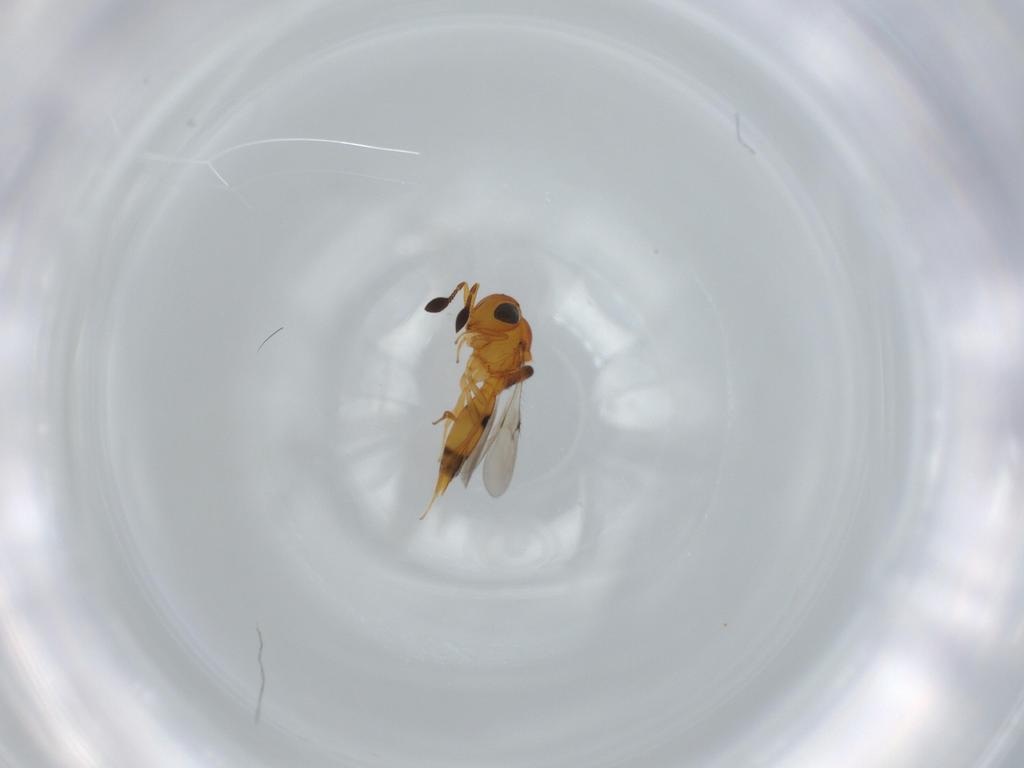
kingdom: Animalia
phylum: Arthropoda
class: Insecta
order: Hymenoptera
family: Scelionidae
